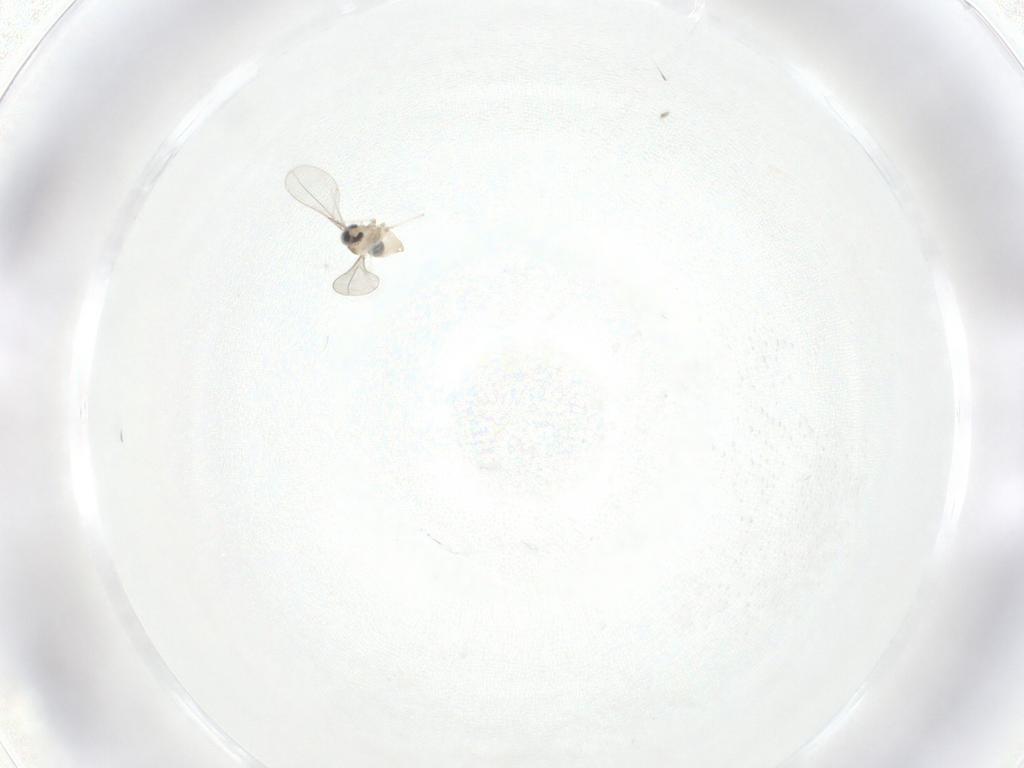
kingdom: Animalia
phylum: Arthropoda
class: Insecta
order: Diptera
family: Cecidomyiidae
